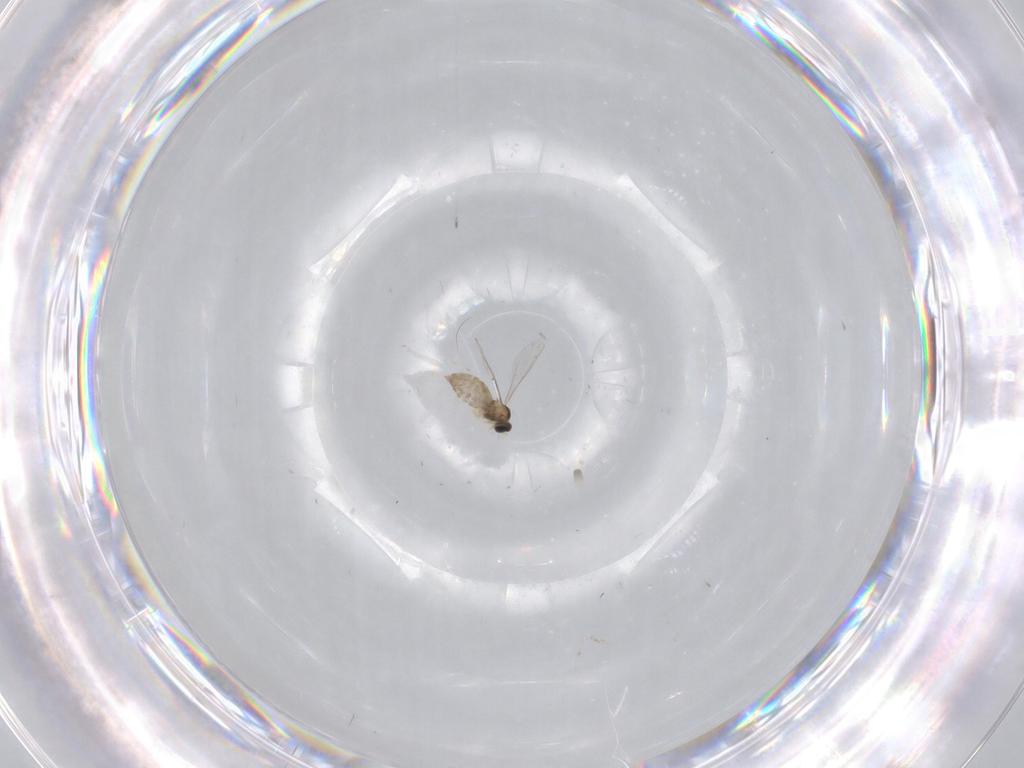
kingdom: Animalia
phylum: Arthropoda
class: Insecta
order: Diptera
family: Cecidomyiidae
